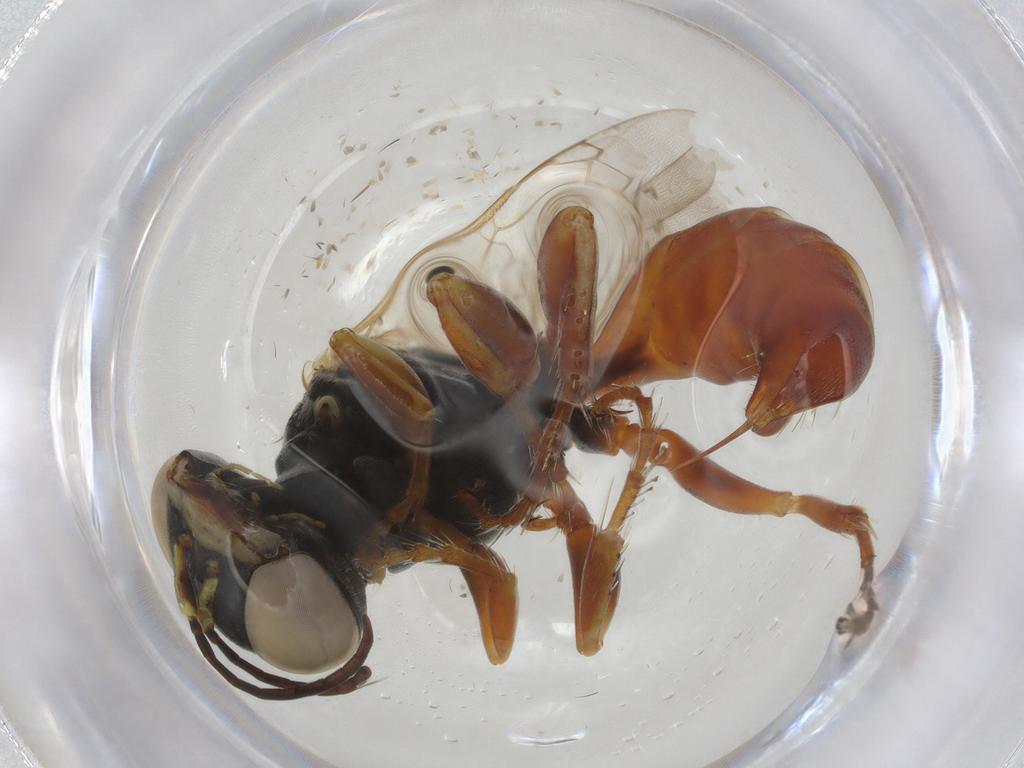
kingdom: Animalia
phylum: Arthropoda
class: Insecta
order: Hymenoptera
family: Crabronidae
